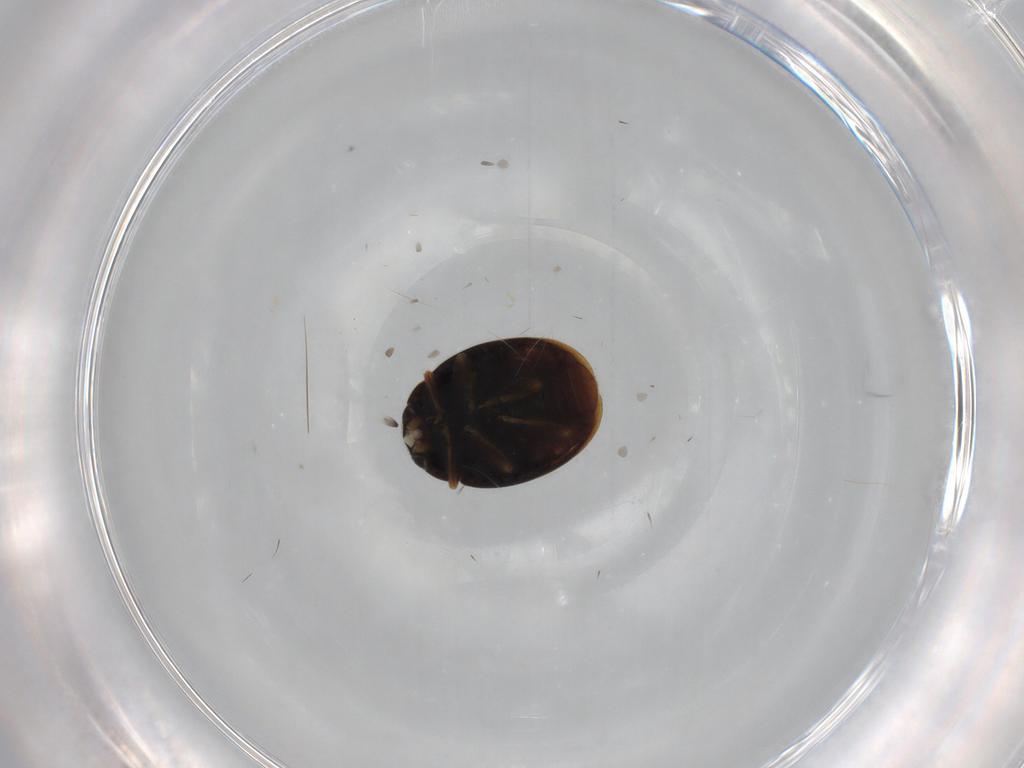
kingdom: Animalia
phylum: Arthropoda
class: Insecta
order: Coleoptera
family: Coccinellidae
